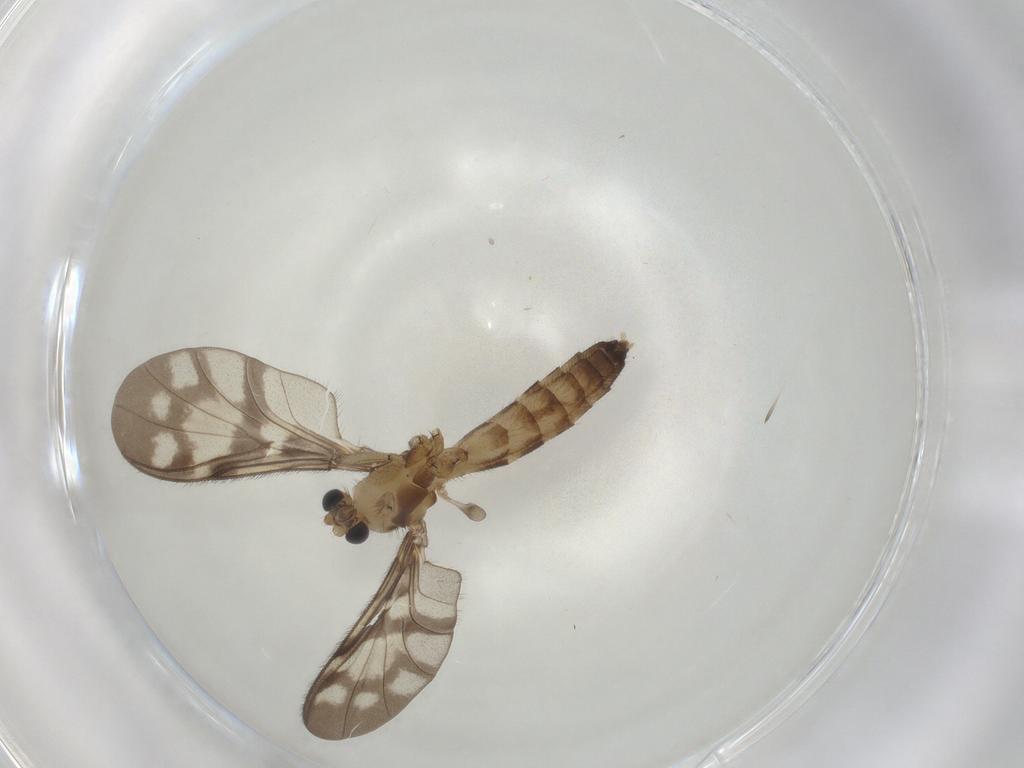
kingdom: Animalia
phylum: Arthropoda
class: Insecta
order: Diptera
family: Keroplatidae
